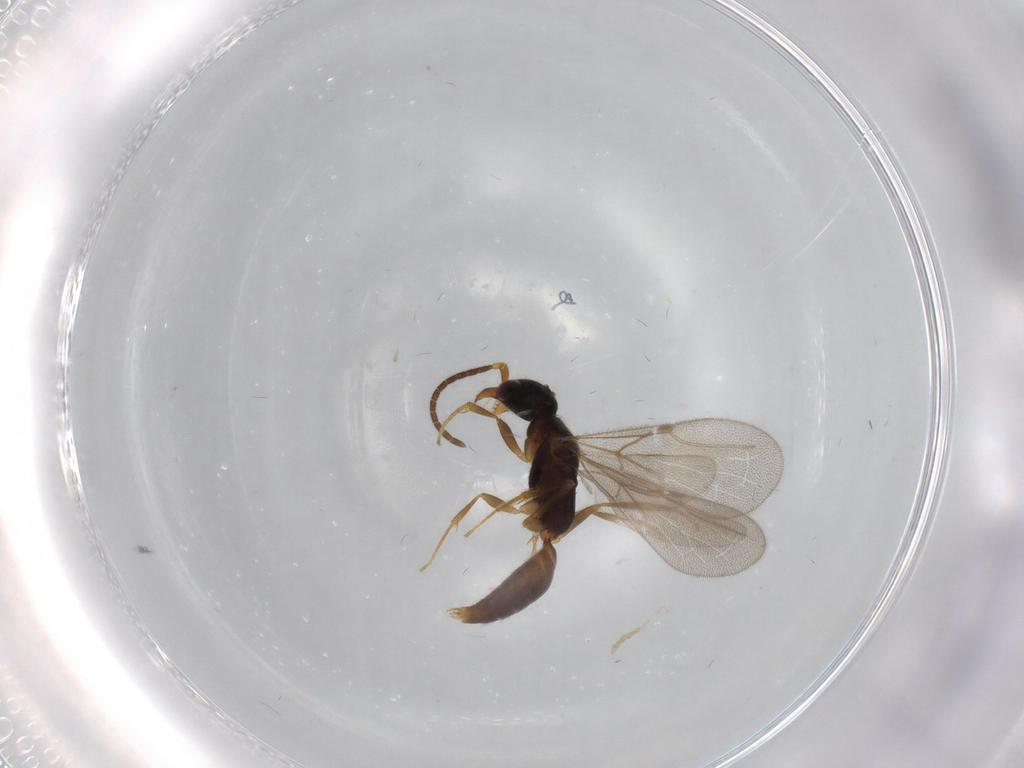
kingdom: Animalia
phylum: Arthropoda
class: Insecta
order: Hymenoptera
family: Bethylidae
